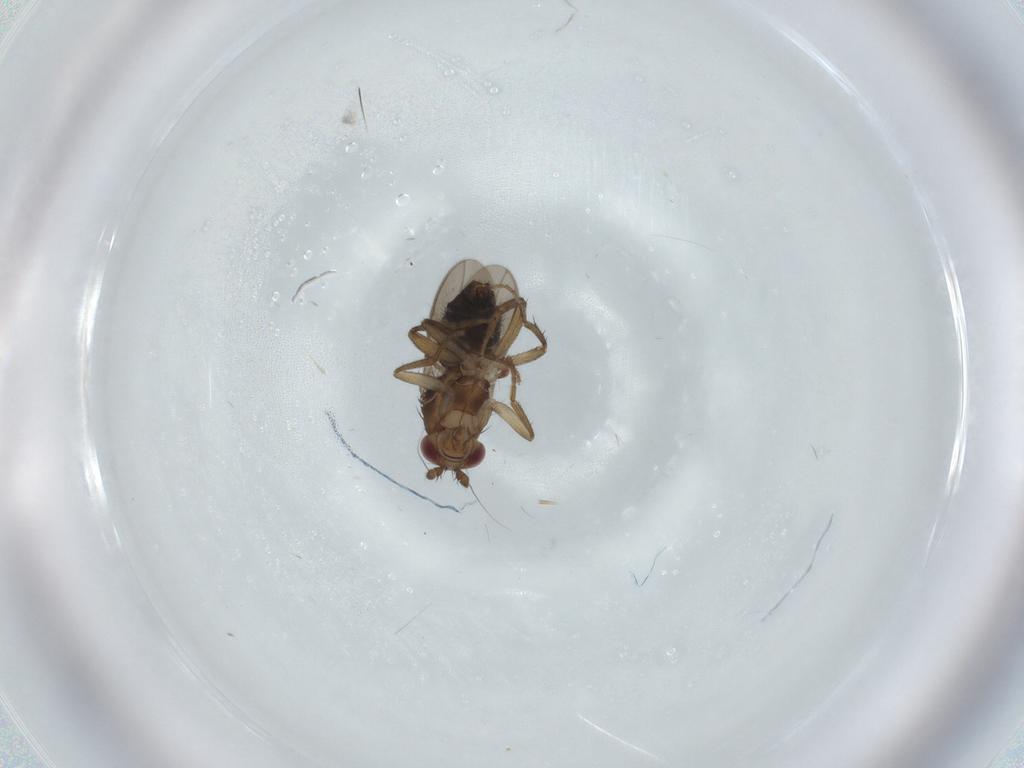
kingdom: Animalia
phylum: Arthropoda
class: Insecta
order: Diptera
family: Sphaeroceridae
